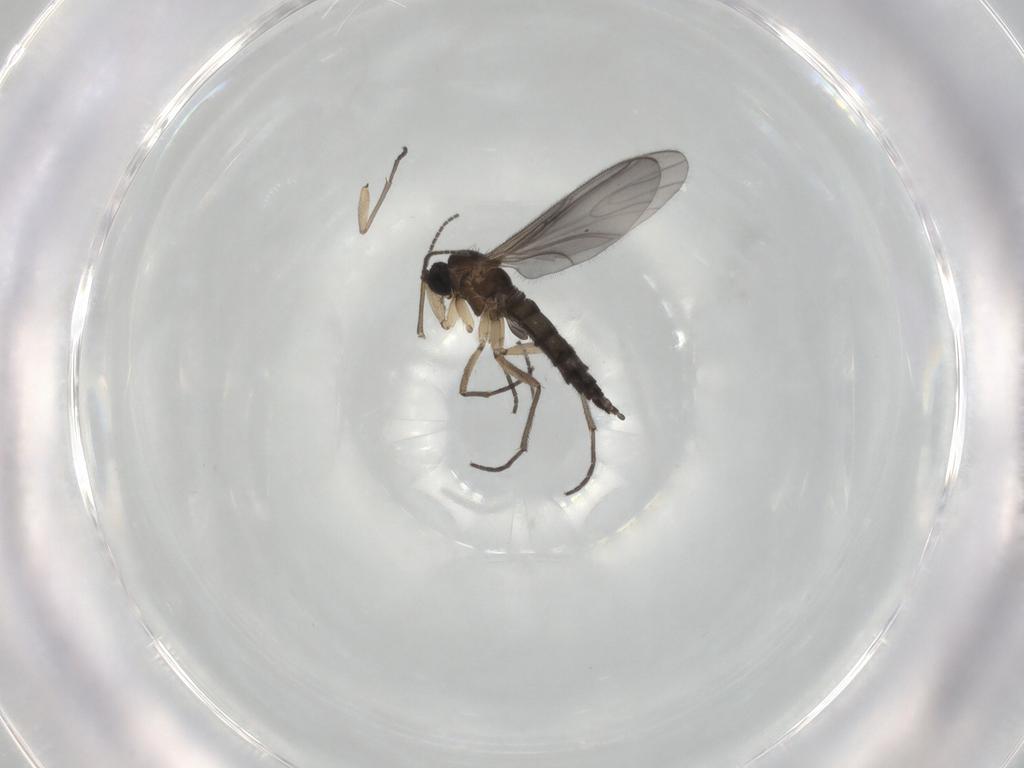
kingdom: Animalia
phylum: Arthropoda
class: Insecta
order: Diptera
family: Sciaridae
